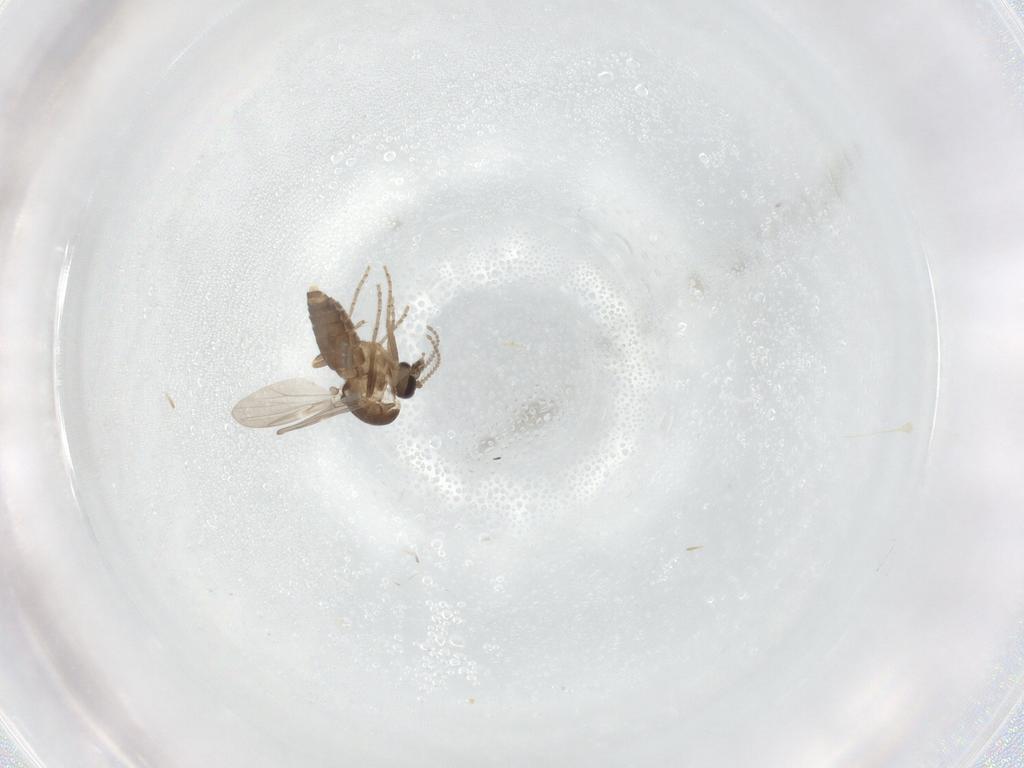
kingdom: Animalia
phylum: Arthropoda
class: Insecta
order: Diptera
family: Ceratopogonidae
